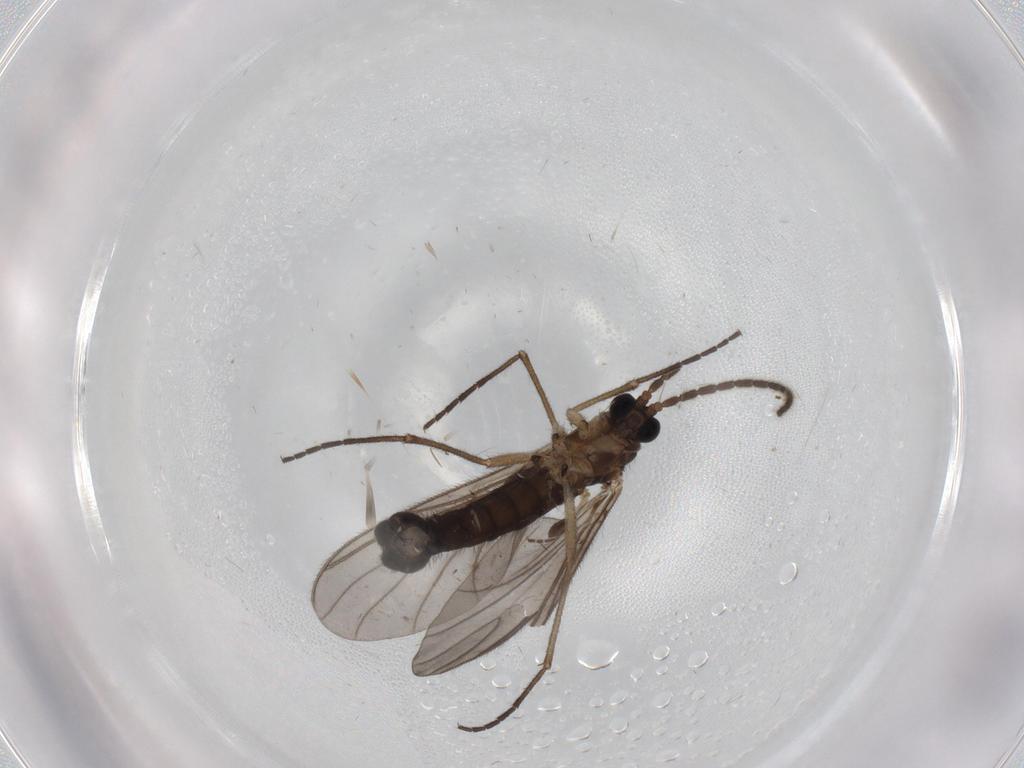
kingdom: Animalia
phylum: Arthropoda
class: Insecta
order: Diptera
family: Sciaridae
